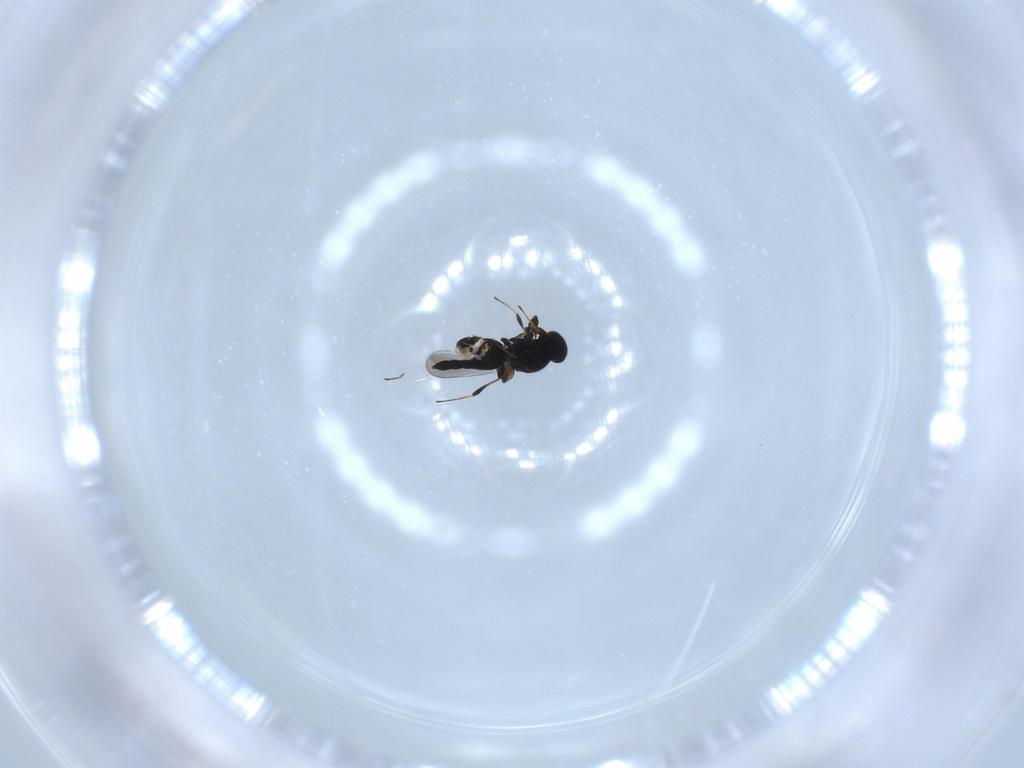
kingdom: Animalia
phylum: Arthropoda
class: Insecta
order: Hymenoptera
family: Platygastridae
